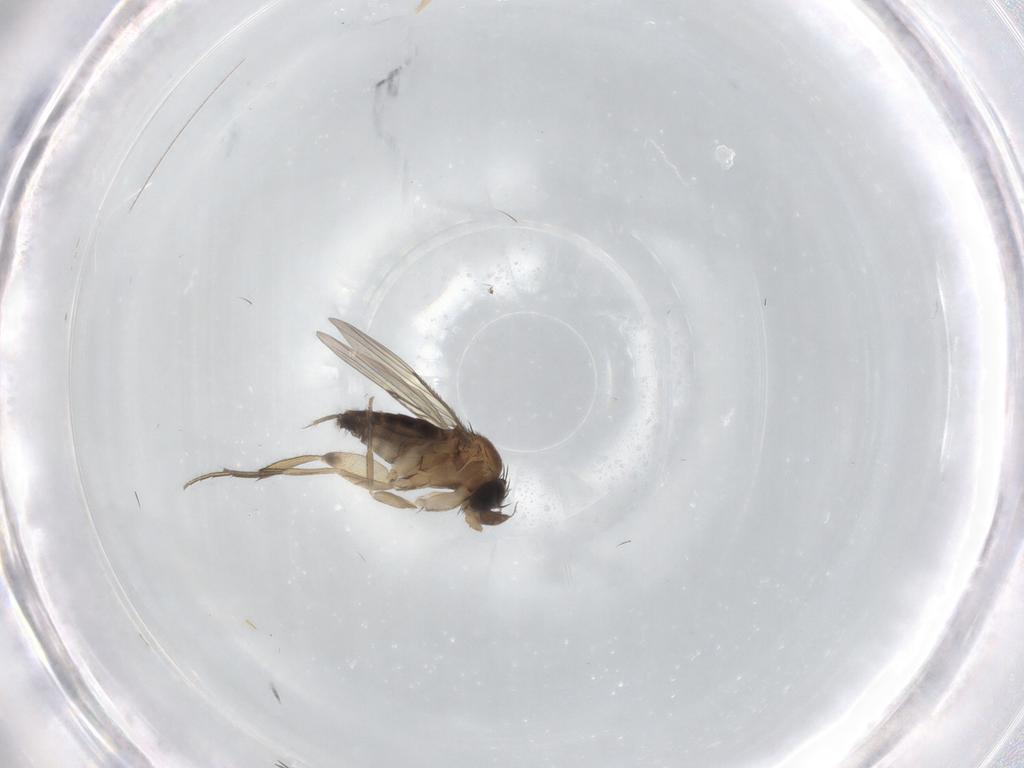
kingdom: Animalia
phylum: Arthropoda
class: Insecta
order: Diptera
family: Phoridae
